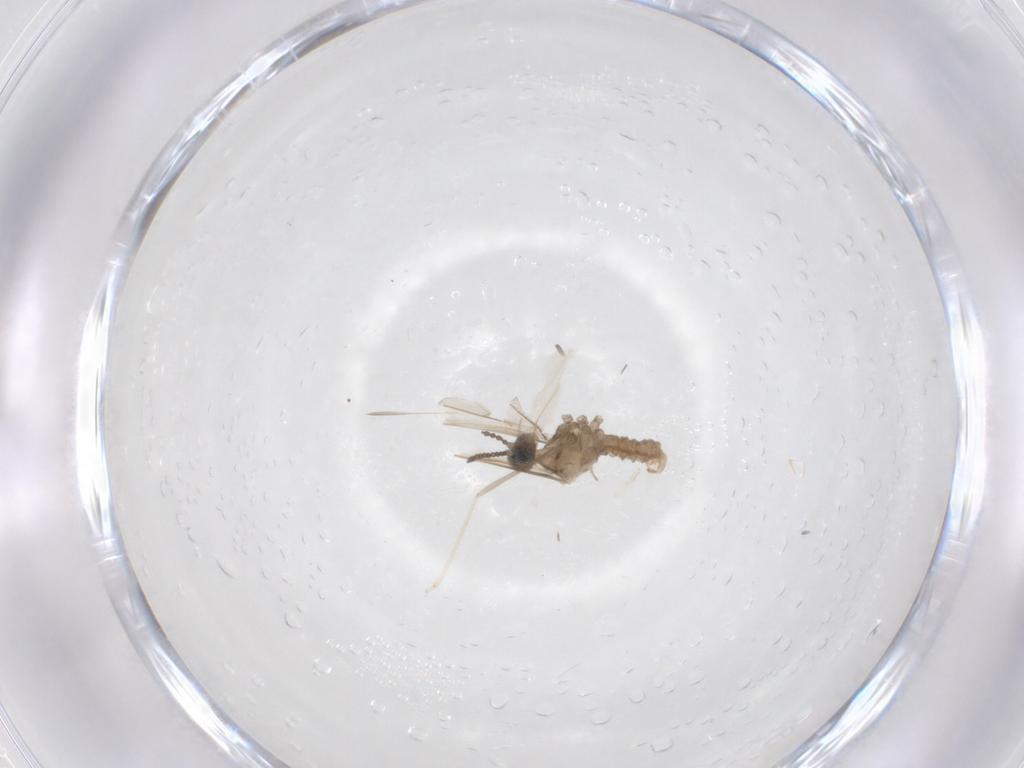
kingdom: Animalia
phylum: Arthropoda
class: Insecta
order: Diptera
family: Cecidomyiidae
